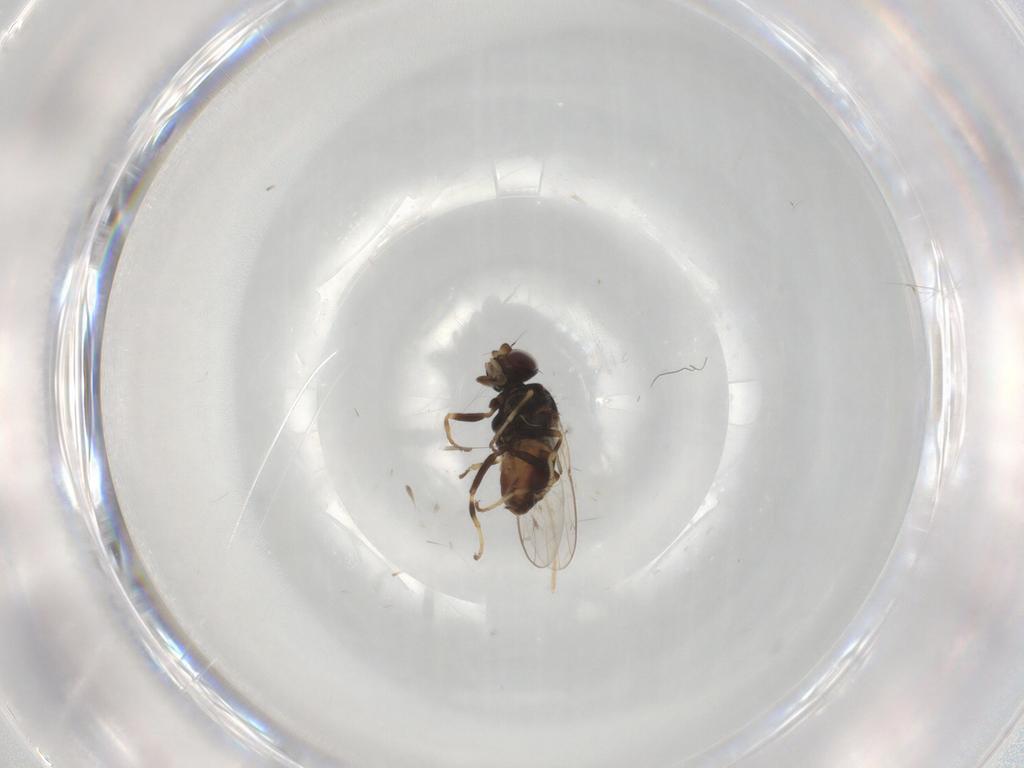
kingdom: Animalia
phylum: Arthropoda
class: Insecta
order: Diptera
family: Chloropidae
